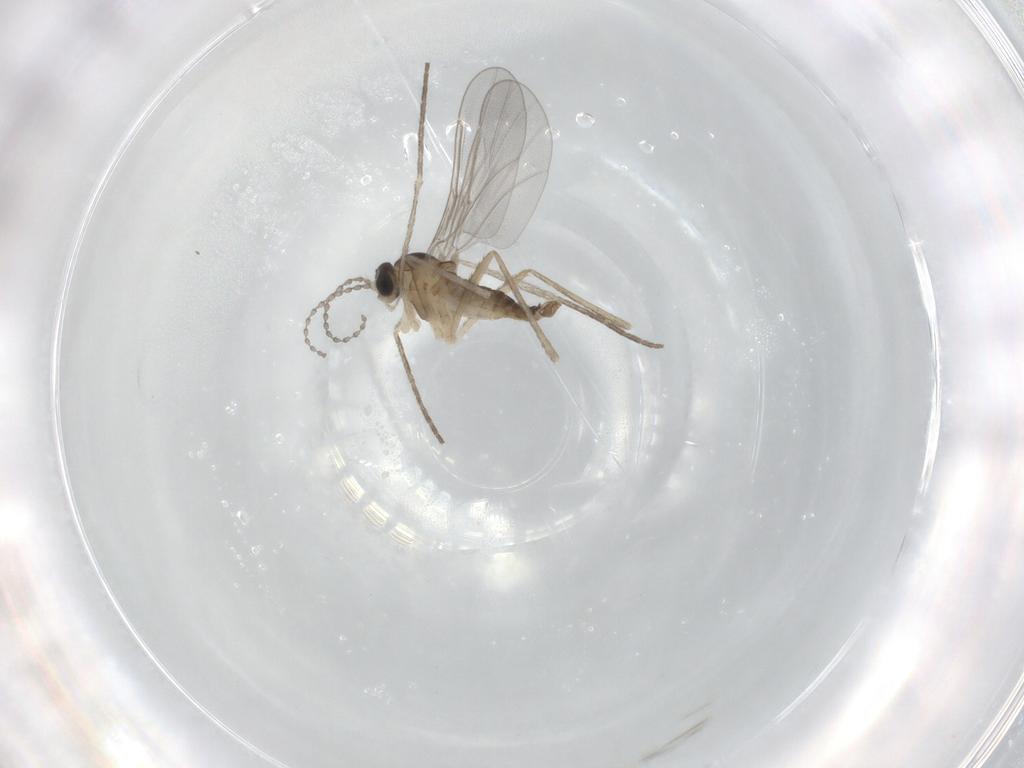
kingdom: Animalia
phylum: Arthropoda
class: Insecta
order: Diptera
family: Cecidomyiidae
